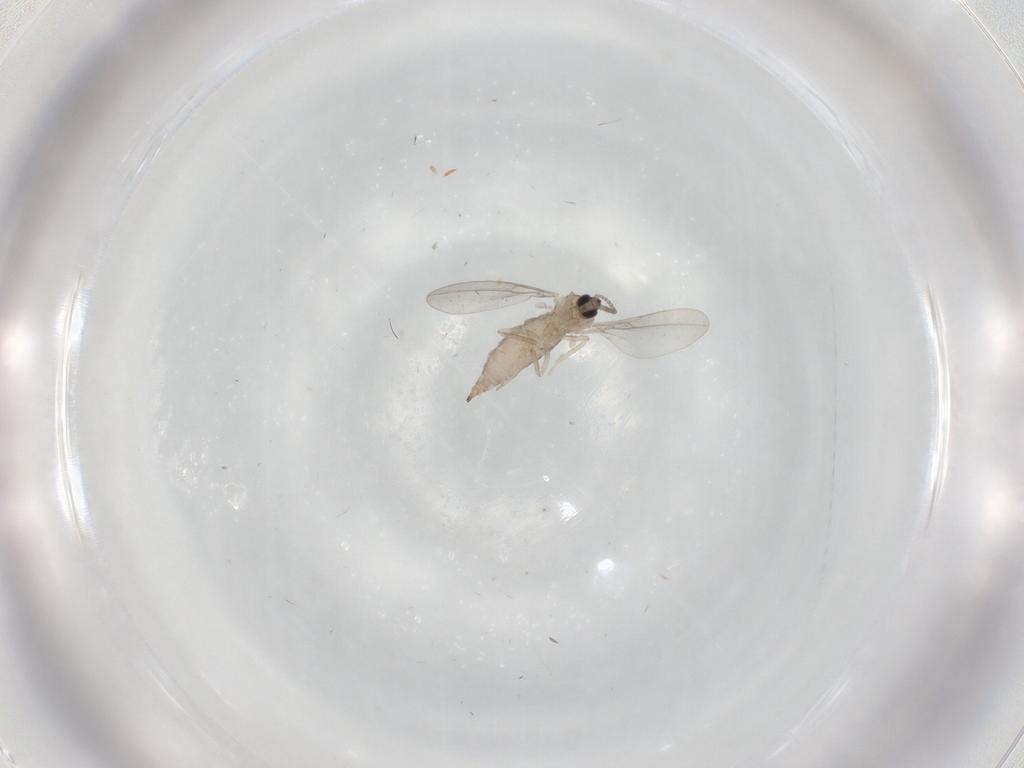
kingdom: Animalia
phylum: Arthropoda
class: Insecta
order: Diptera
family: Cecidomyiidae
